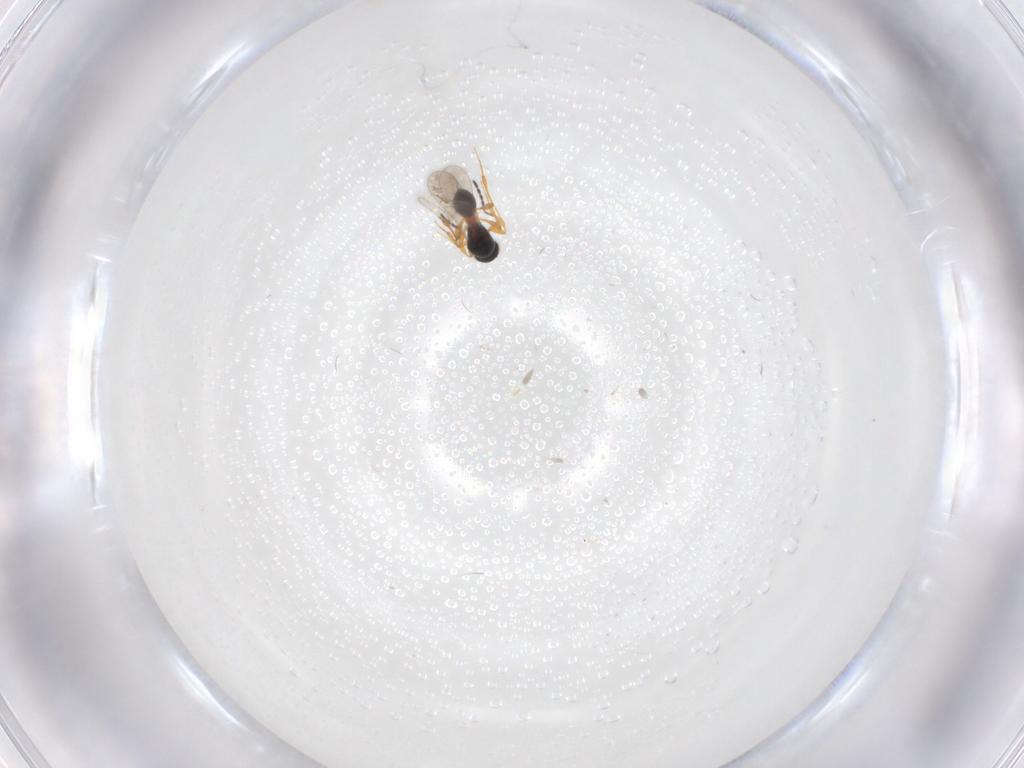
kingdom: Animalia
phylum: Arthropoda
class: Insecta
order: Hymenoptera
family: Platygastridae
